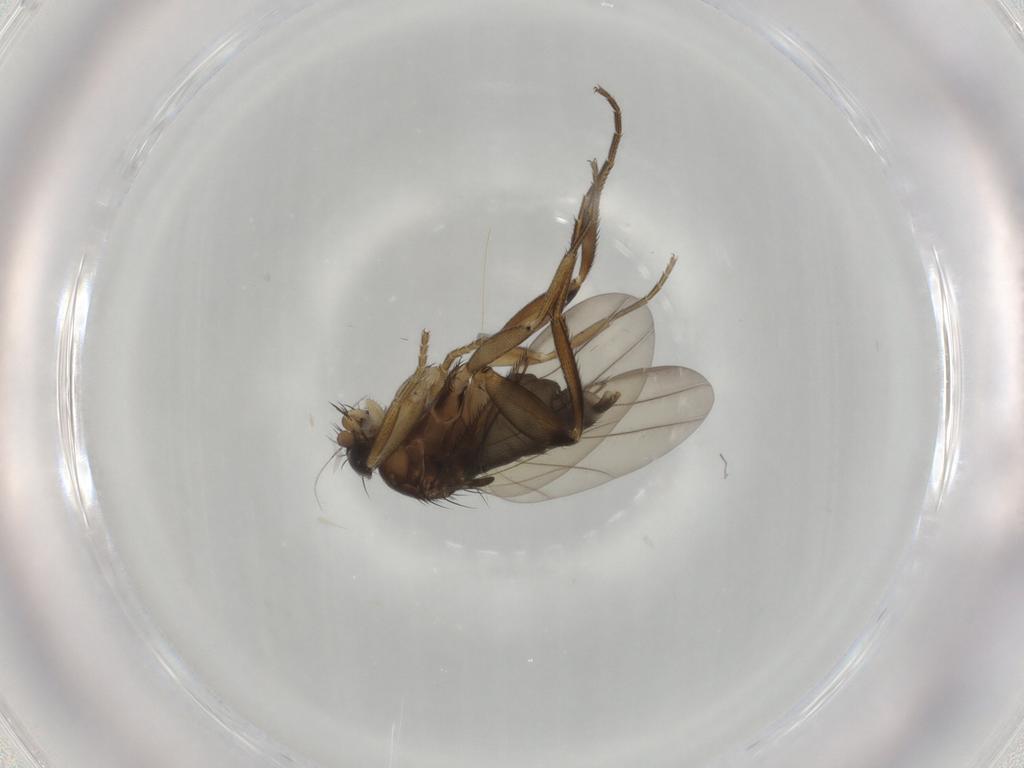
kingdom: Animalia
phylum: Arthropoda
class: Insecta
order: Diptera
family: Phoridae
